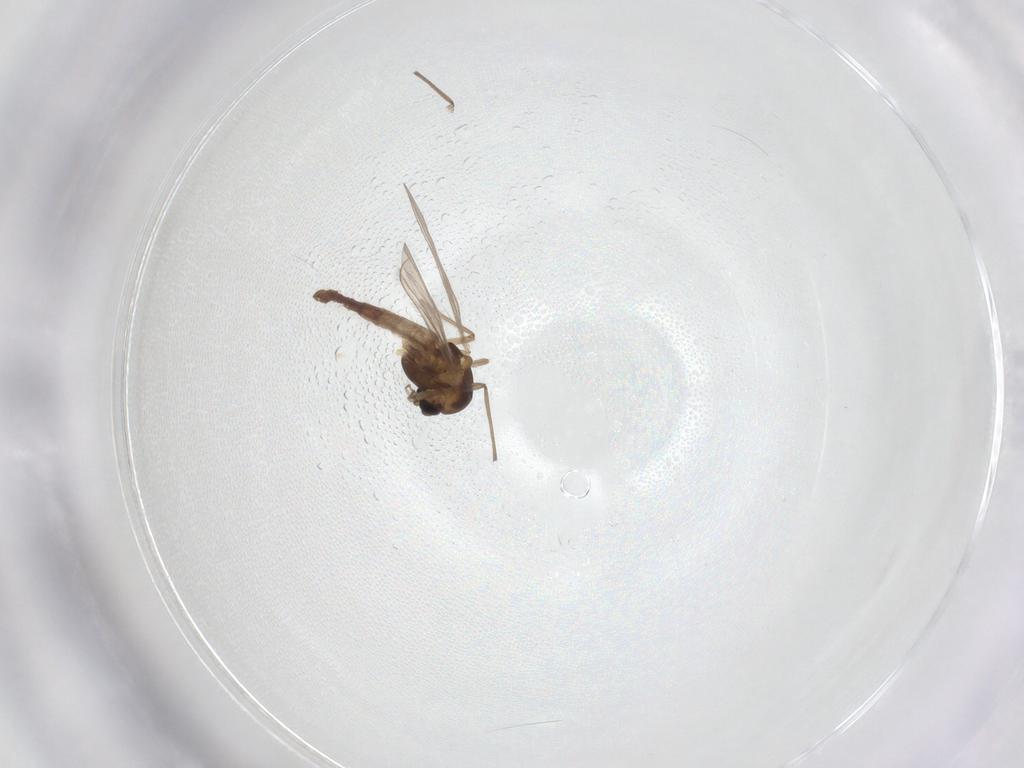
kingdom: Animalia
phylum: Arthropoda
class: Insecta
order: Diptera
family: Chironomidae
